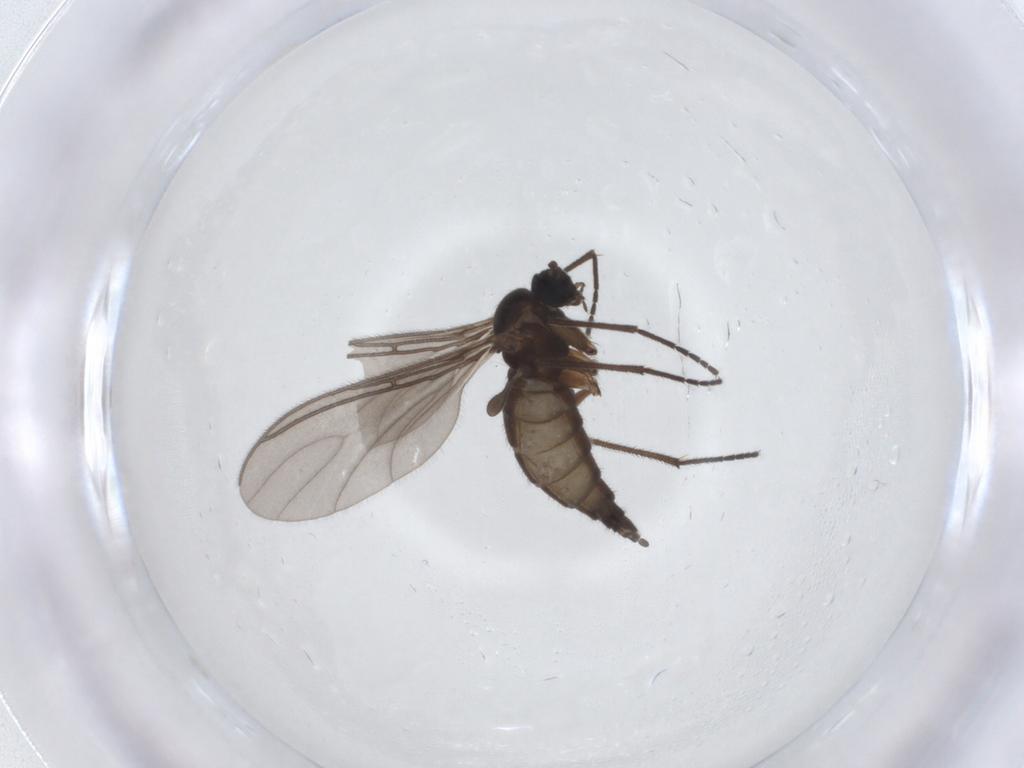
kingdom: Animalia
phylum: Arthropoda
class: Insecta
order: Diptera
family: Sciaridae
